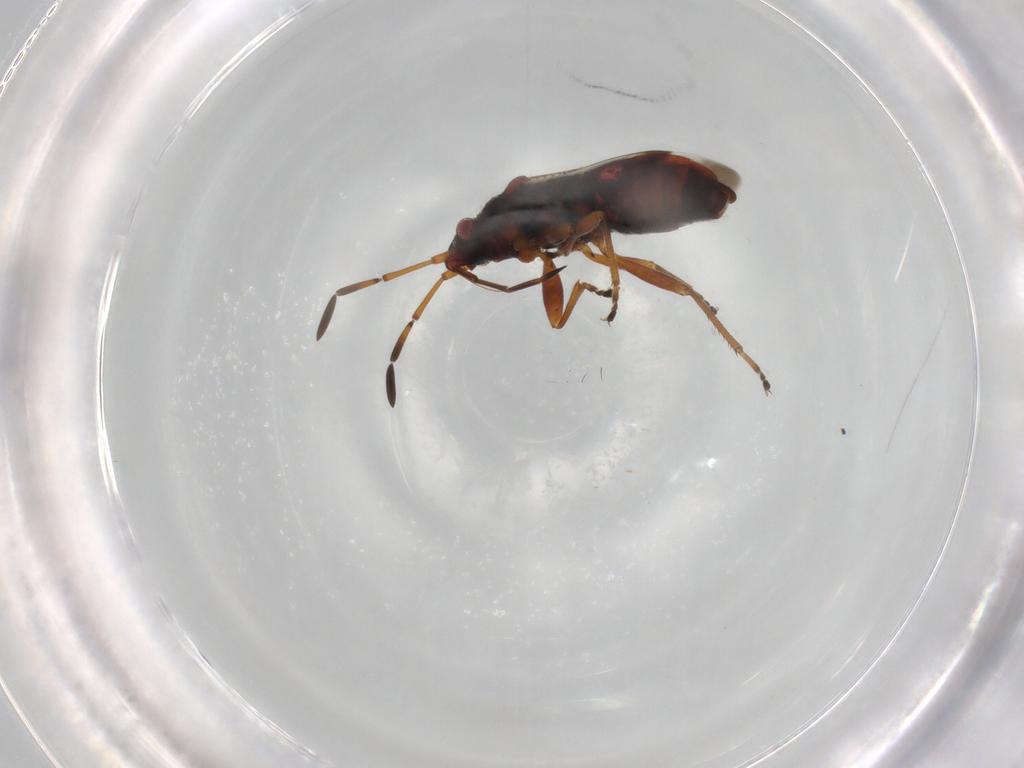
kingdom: Animalia
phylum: Arthropoda
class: Insecta
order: Hemiptera
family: Rhyparochromidae
